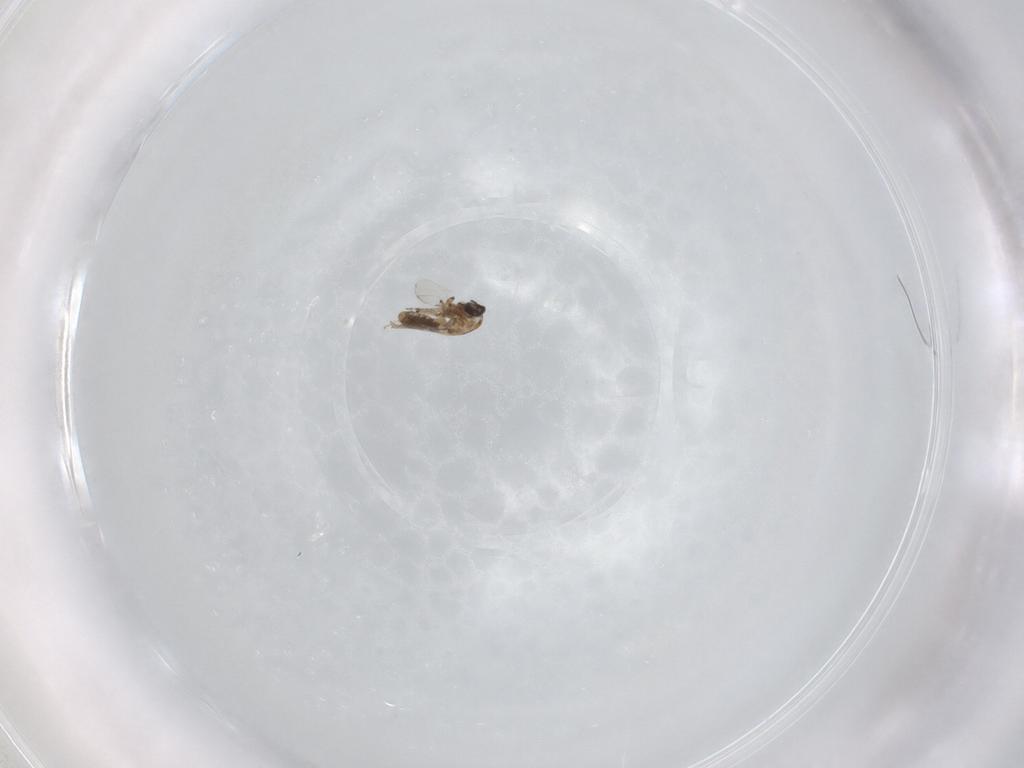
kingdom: Animalia
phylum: Arthropoda
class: Insecta
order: Diptera
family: Ceratopogonidae
